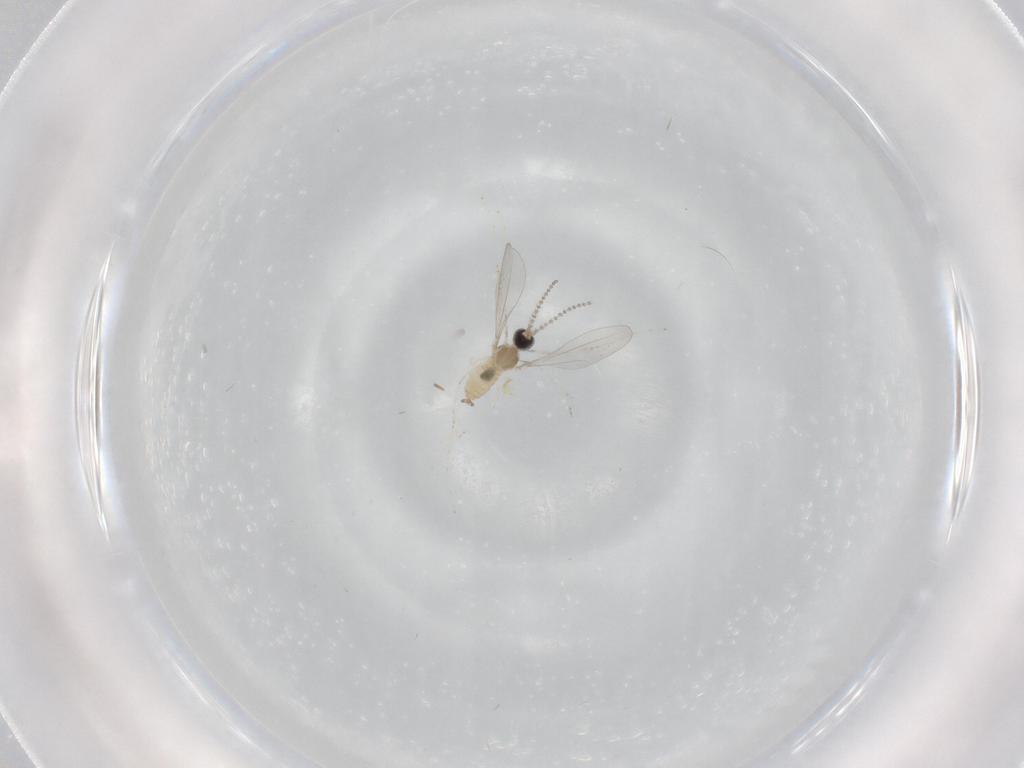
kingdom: Animalia
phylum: Arthropoda
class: Insecta
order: Diptera
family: Cecidomyiidae
